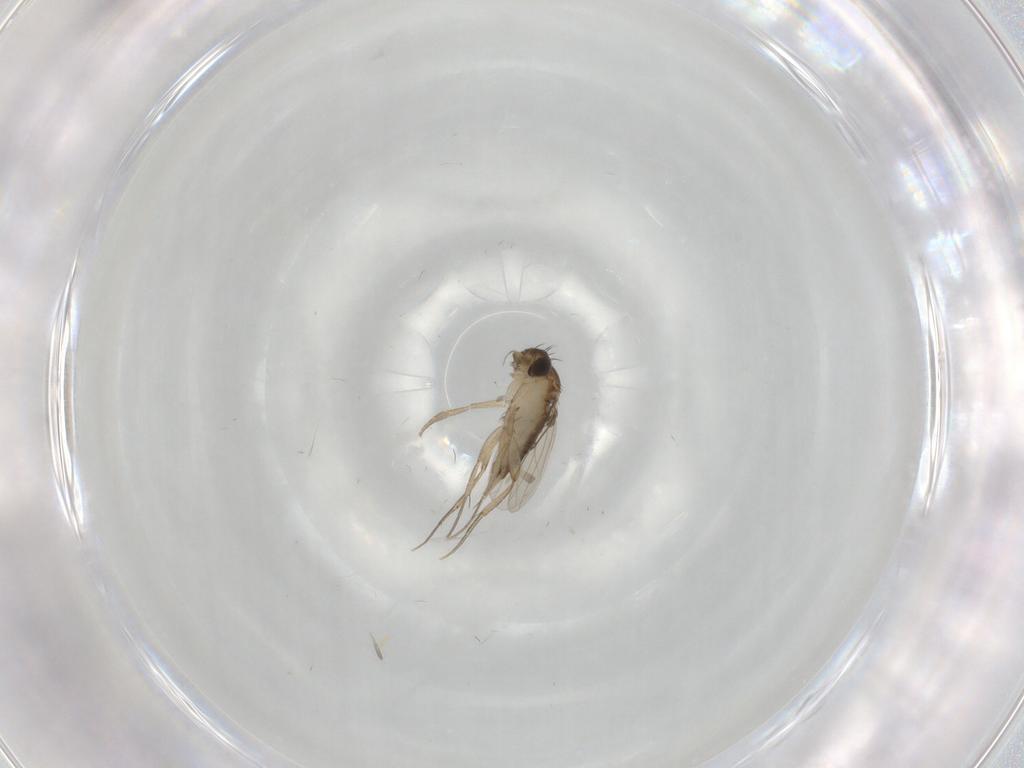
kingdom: Animalia
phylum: Arthropoda
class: Insecta
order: Diptera
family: Phoridae
